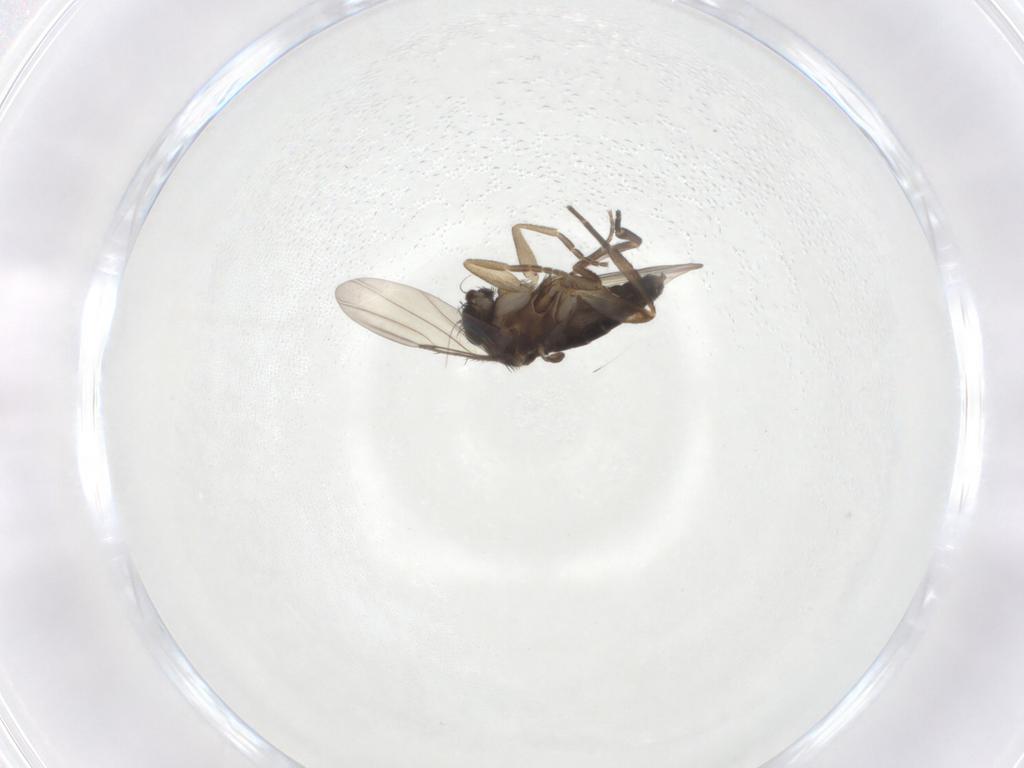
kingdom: Animalia
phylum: Arthropoda
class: Insecta
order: Diptera
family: Phoridae
